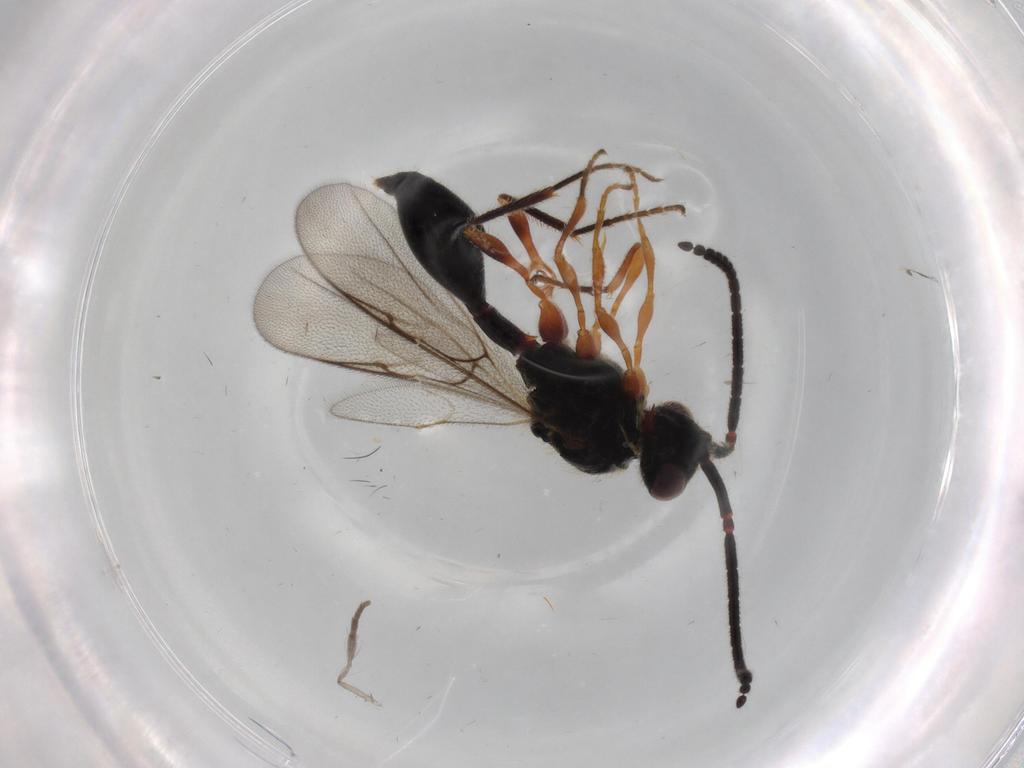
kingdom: Animalia
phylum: Arthropoda
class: Insecta
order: Hymenoptera
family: Diapriidae
